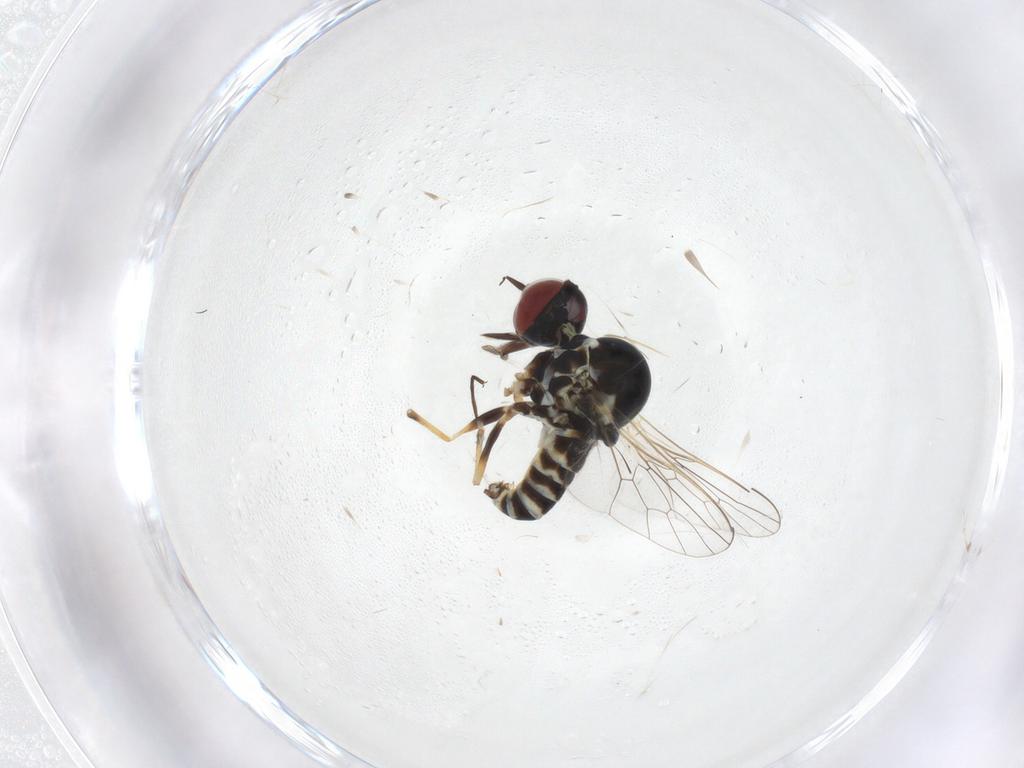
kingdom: Animalia
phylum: Arthropoda
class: Insecta
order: Diptera
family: Mythicomyiidae
